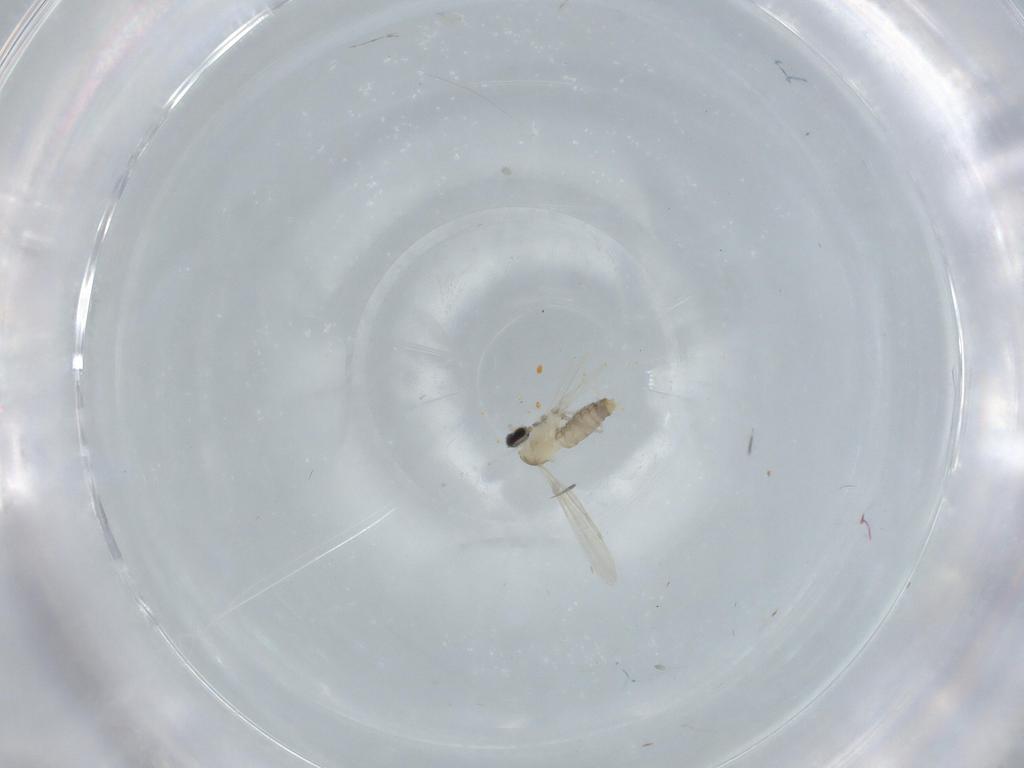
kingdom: Animalia
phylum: Arthropoda
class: Insecta
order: Diptera
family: Cecidomyiidae
